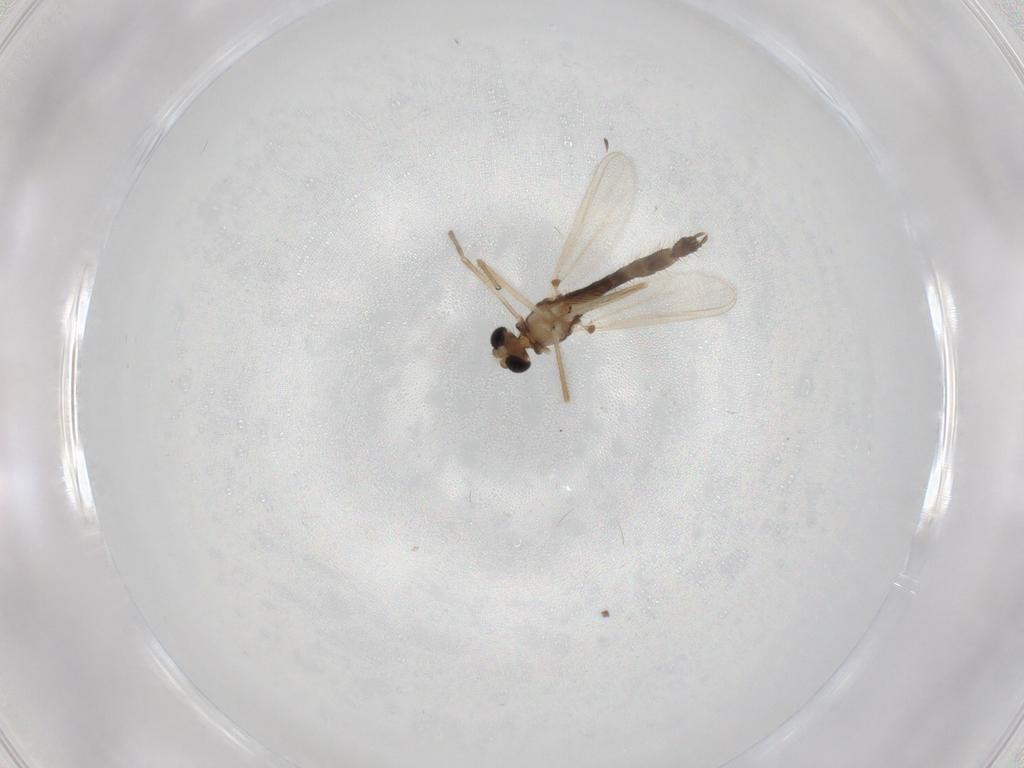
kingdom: Animalia
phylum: Arthropoda
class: Insecta
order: Diptera
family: Chironomidae
